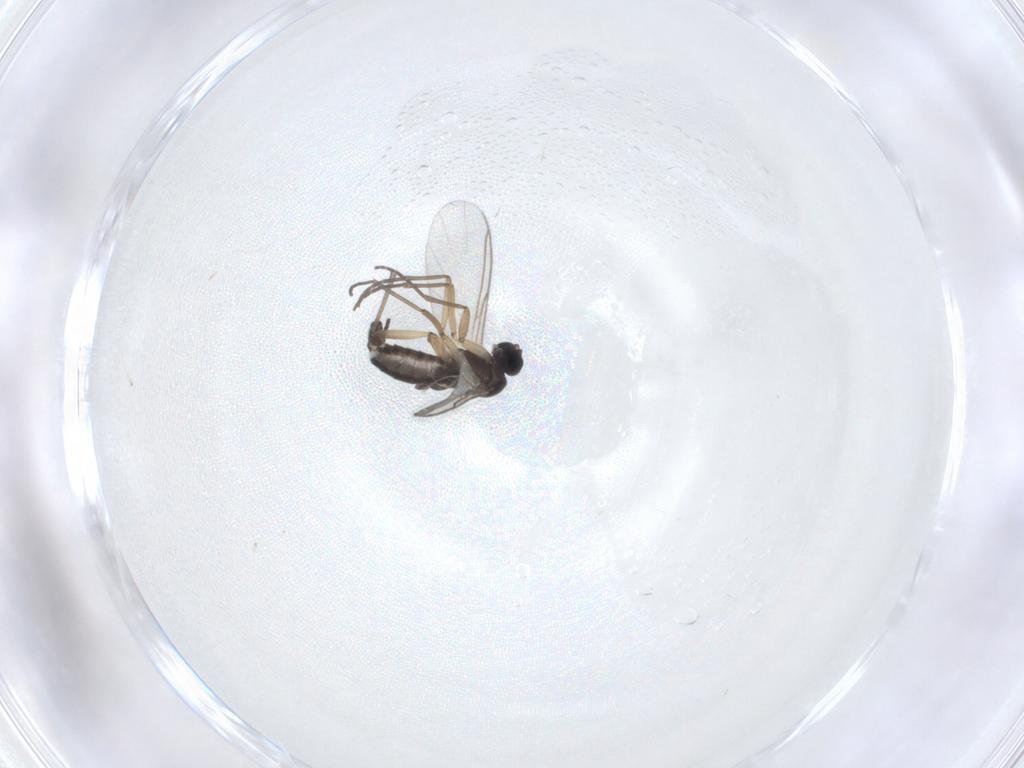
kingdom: Animalia
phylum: Arthropoda
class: Insecta
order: Diptera
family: Sciaridae
